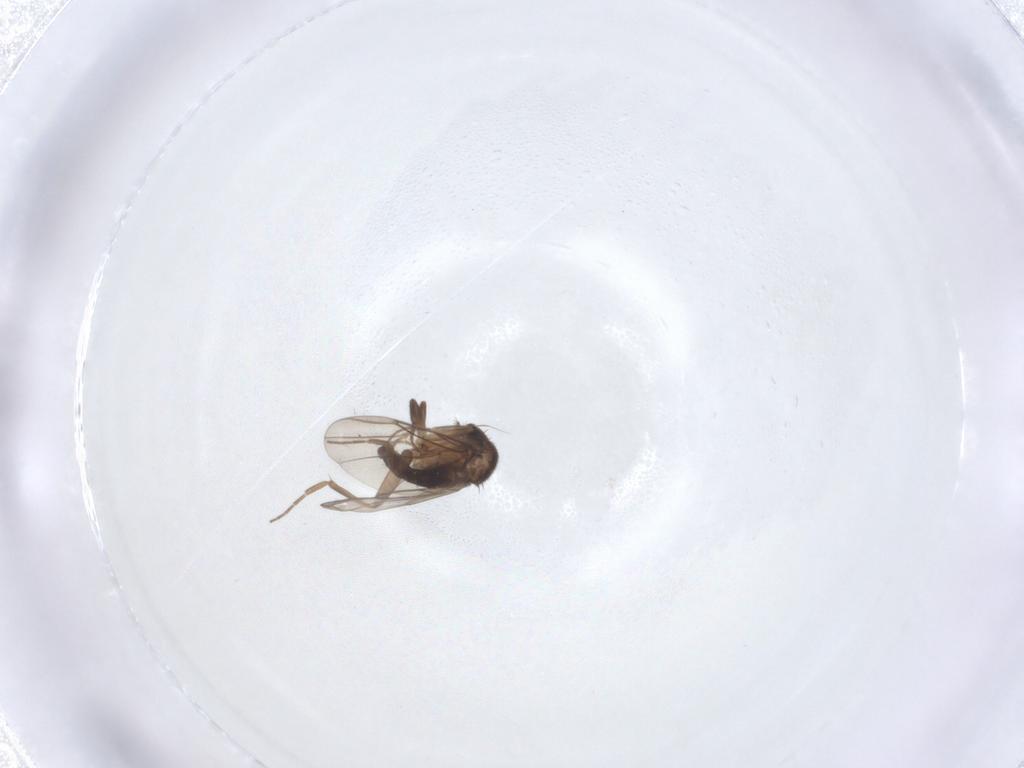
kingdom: Animalia
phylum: Arthropoda
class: Insecta
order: Diptera
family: Phoridae
